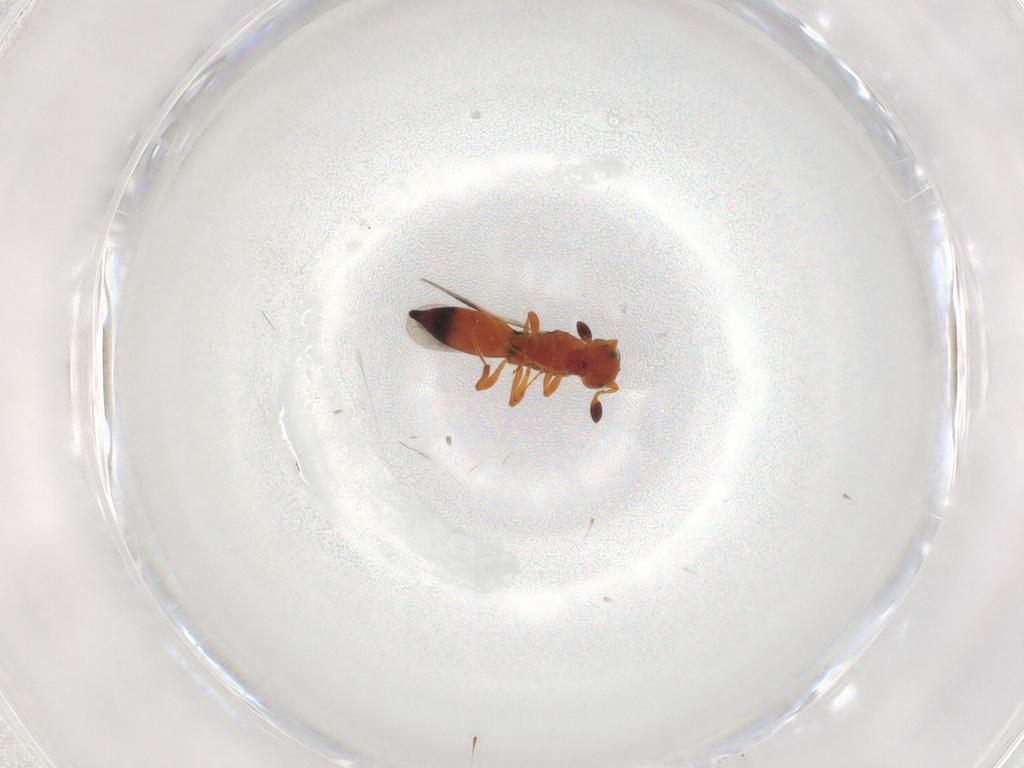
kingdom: Animalia
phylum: Arthropoda
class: Insecta
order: Hymenoptera
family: Platygastridae
